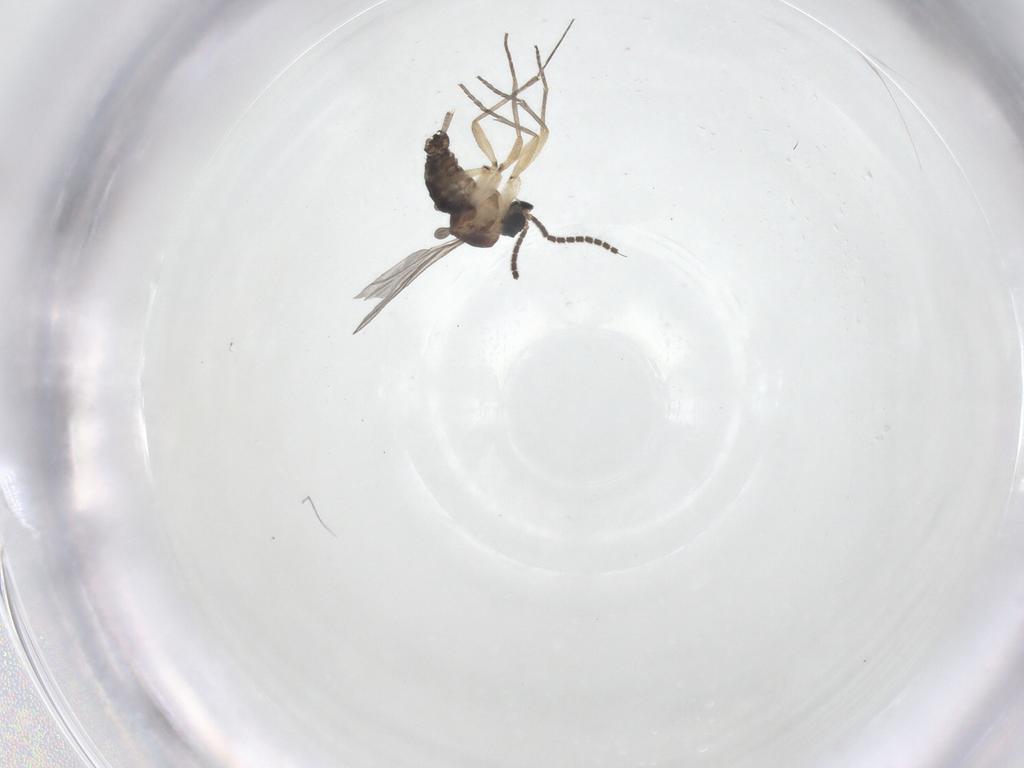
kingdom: Animalia
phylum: Arthropoda
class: Insecta
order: Diptera
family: Sciaridae
